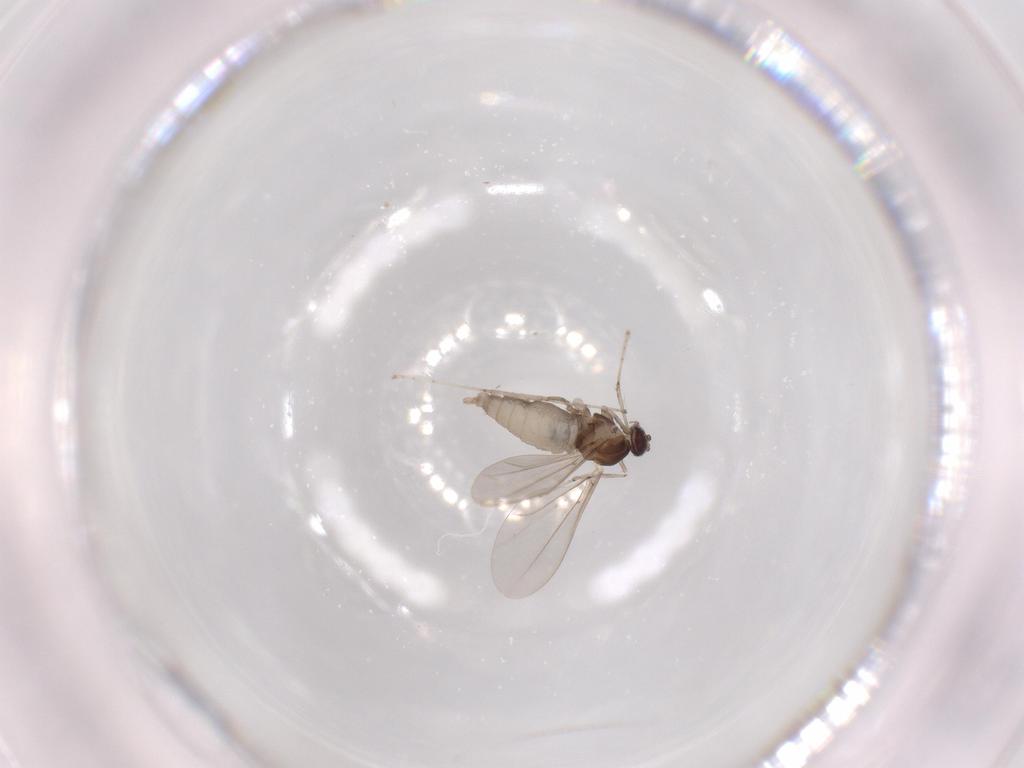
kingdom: Animalia
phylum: Arthropoda
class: Insecta
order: Diptera
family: Cecidomyiidae
